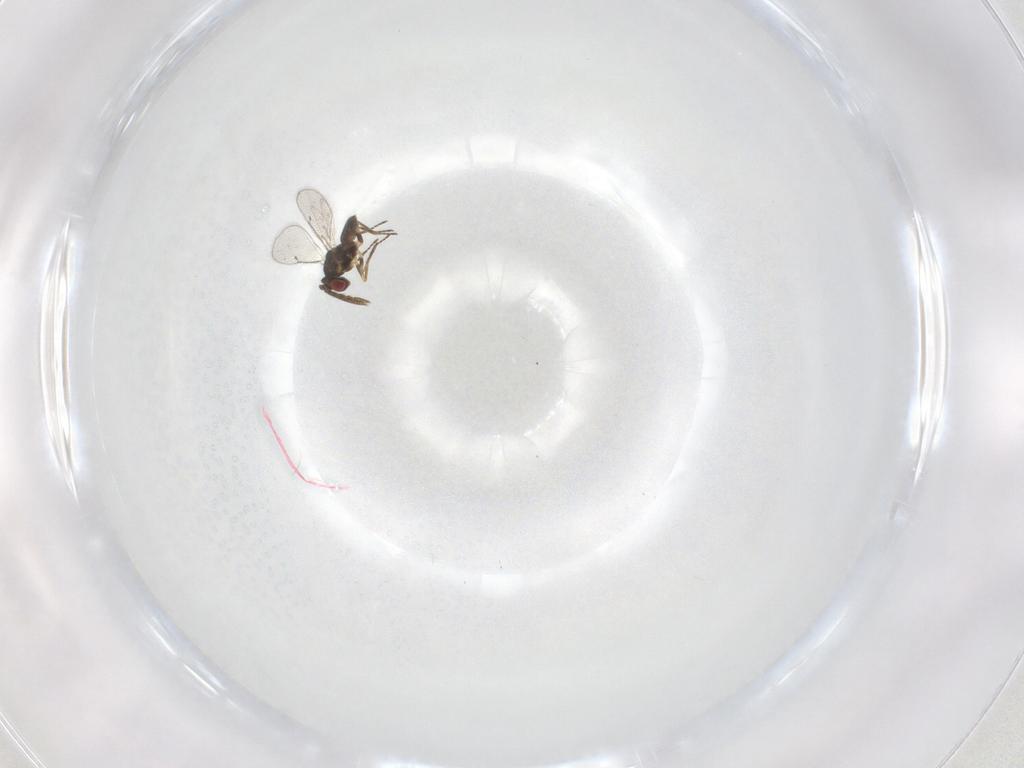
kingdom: Animalia
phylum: Arthropoda
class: Insecta
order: Hymenoptera
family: Eulophidae
